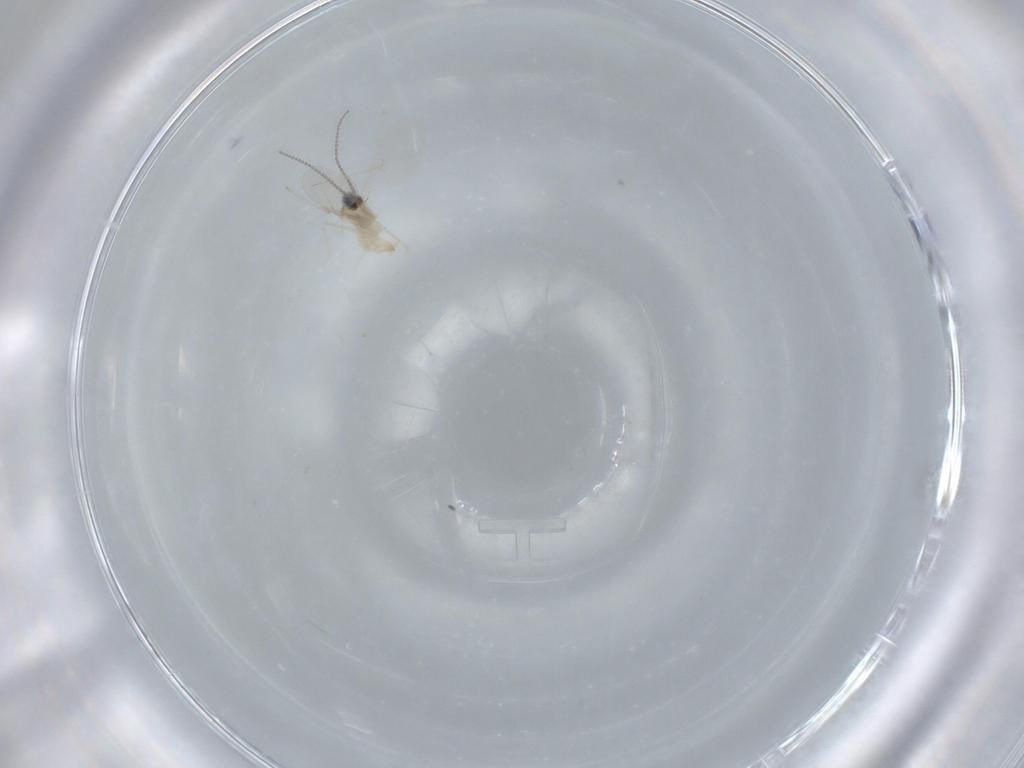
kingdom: Animalia
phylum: Arthropoda
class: Insecta
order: Diptera
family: Cecidomyiidae
